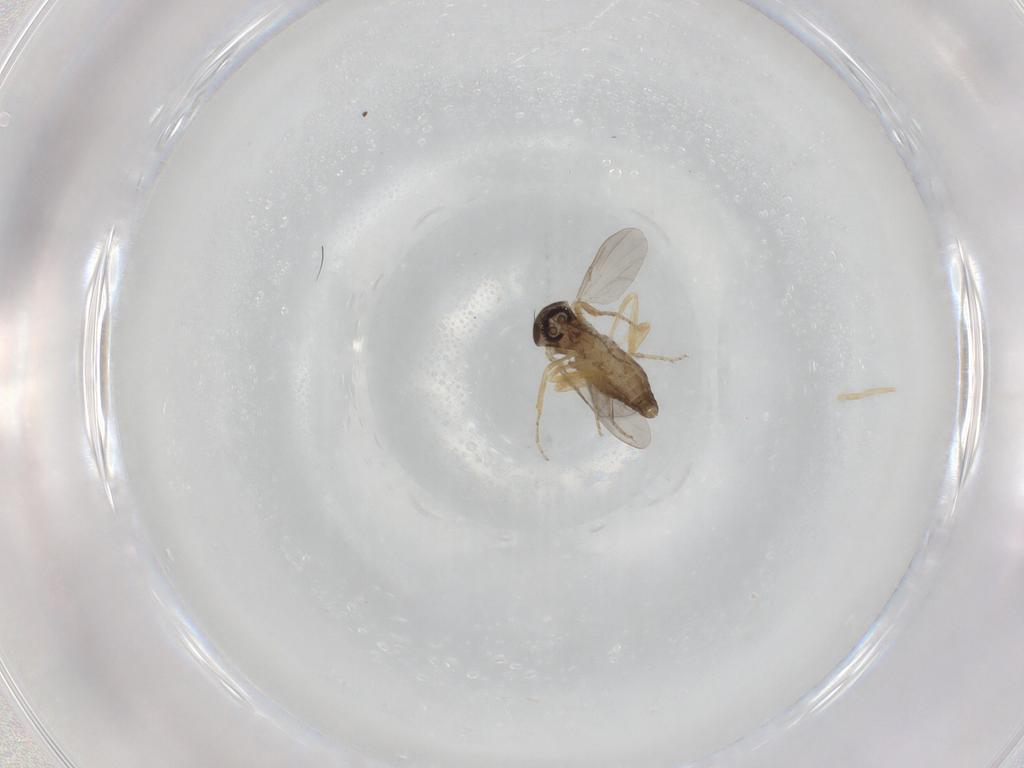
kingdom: Animalia
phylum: Arthropoda
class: Insecta
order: Diptera
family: Ceratopogonidae
